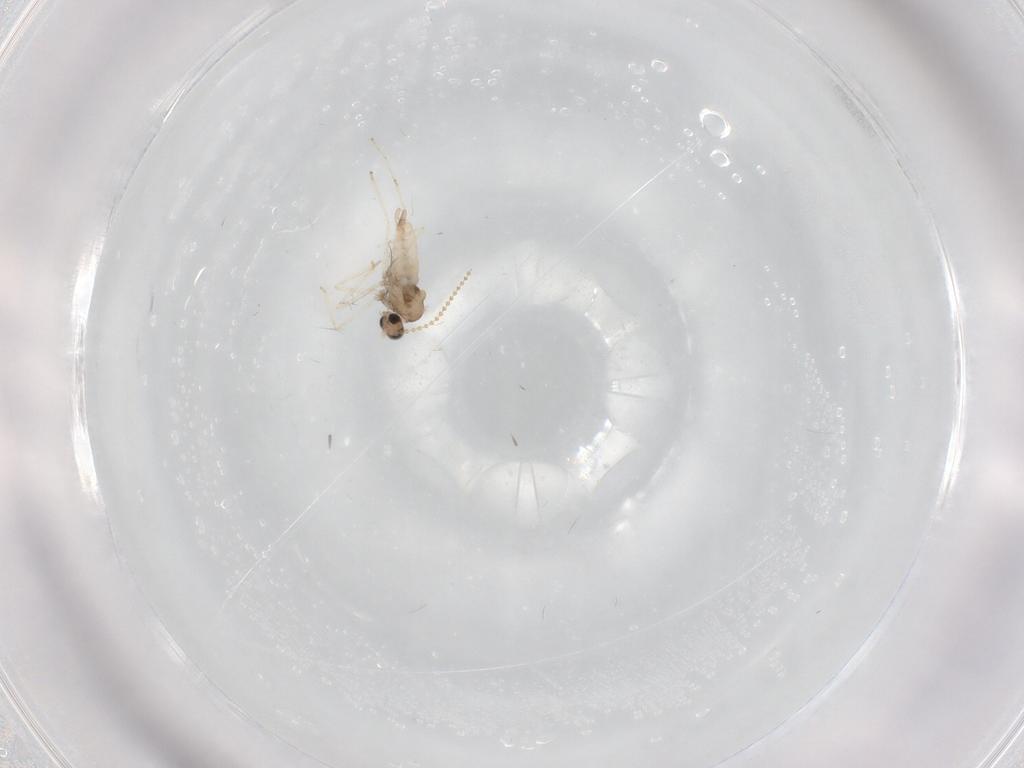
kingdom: Animalia
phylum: Arthropoda
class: Insecta
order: Diptera
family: Cecidomyiidae
